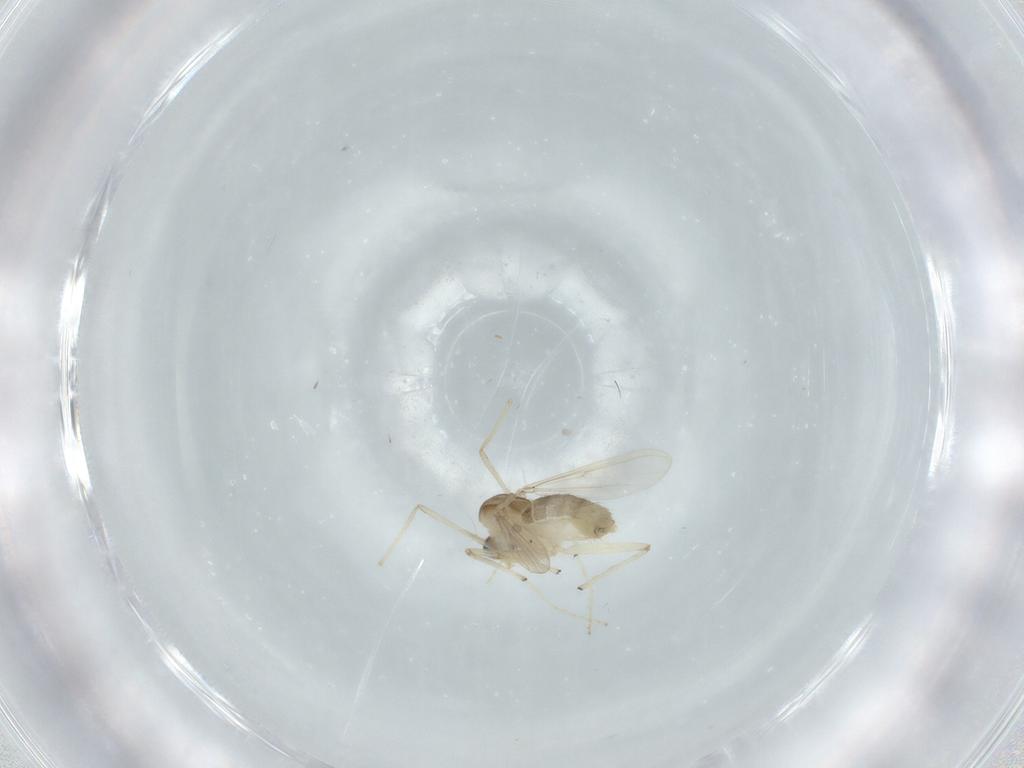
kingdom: Animalia
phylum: Arthropoda
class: Insecta
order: Diptera
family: Chironomidae
